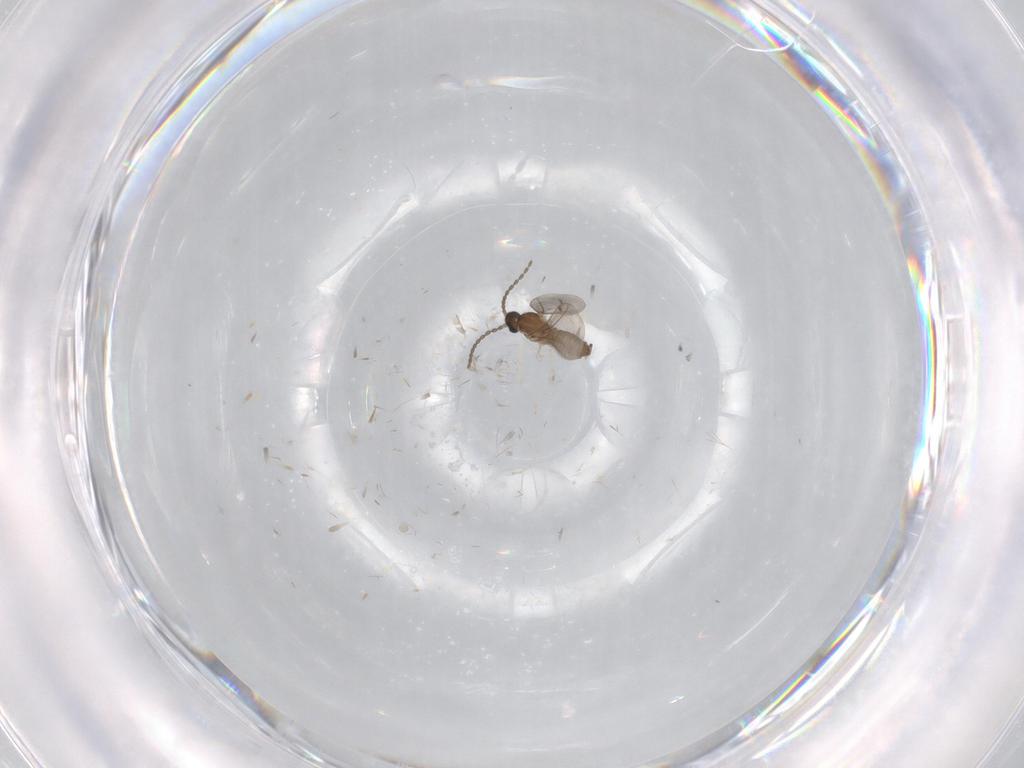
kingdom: Animalia
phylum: Arthropoda
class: Insecta
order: Diptera
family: Cecidomyiidae
